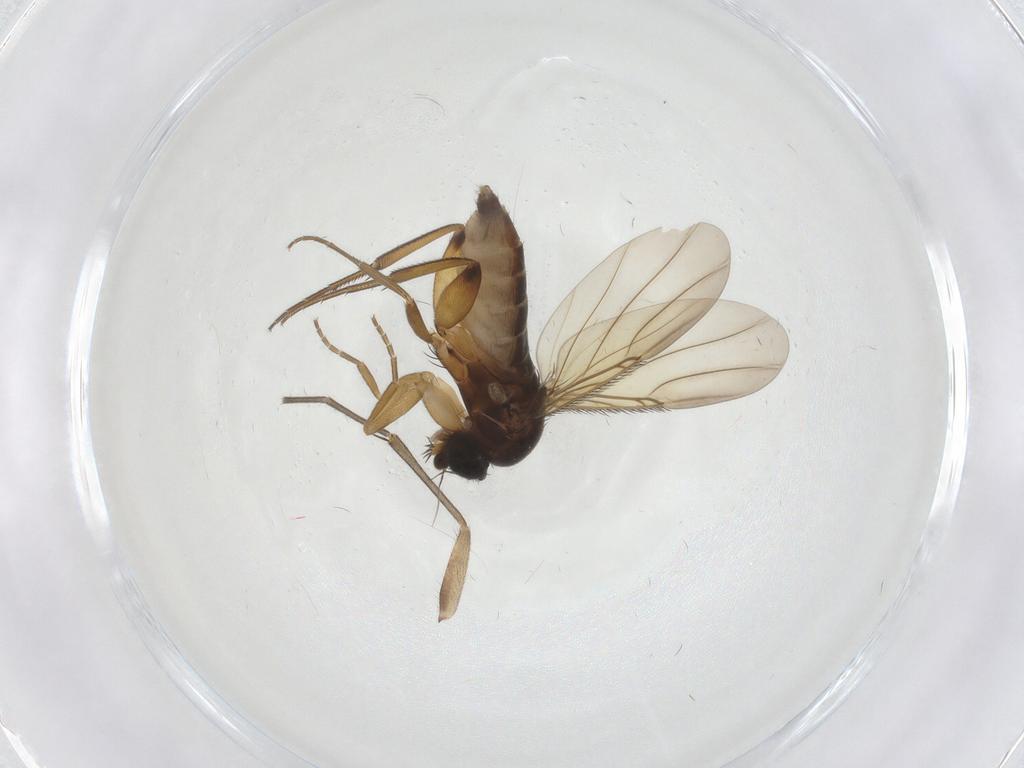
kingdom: Animalia
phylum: Arthropoda
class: Insecta
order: Diptera
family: Phoridae
